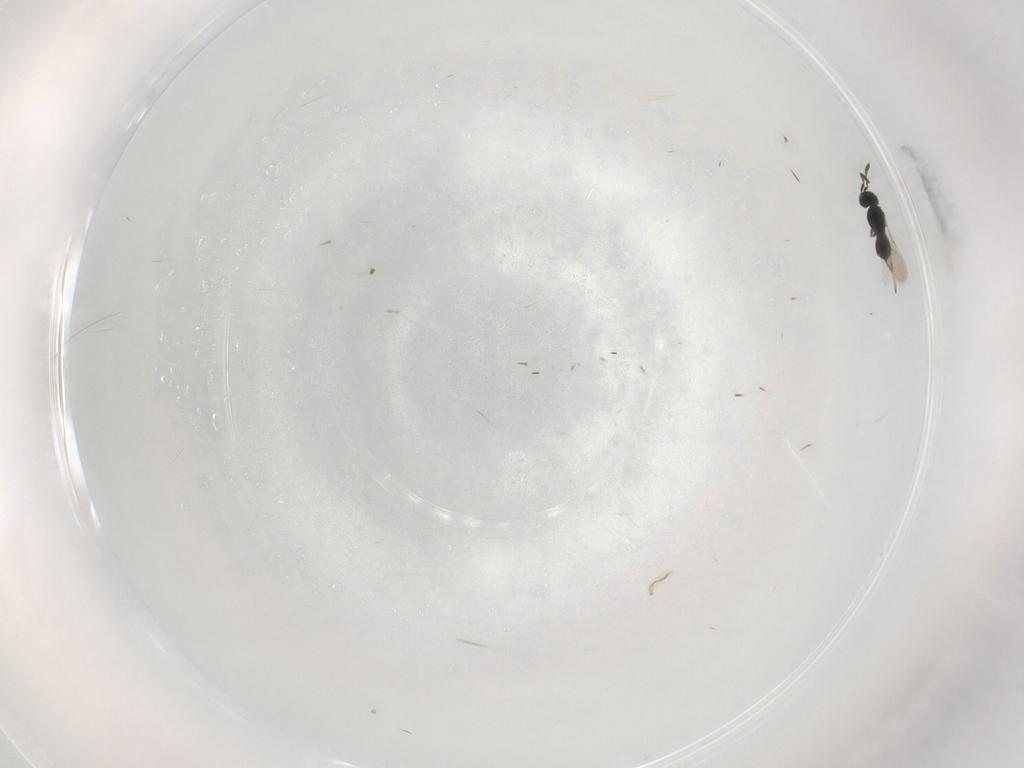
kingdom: Animalia
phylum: Arthropoda
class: Insecta
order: Hymenoptera
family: Scelionidae
